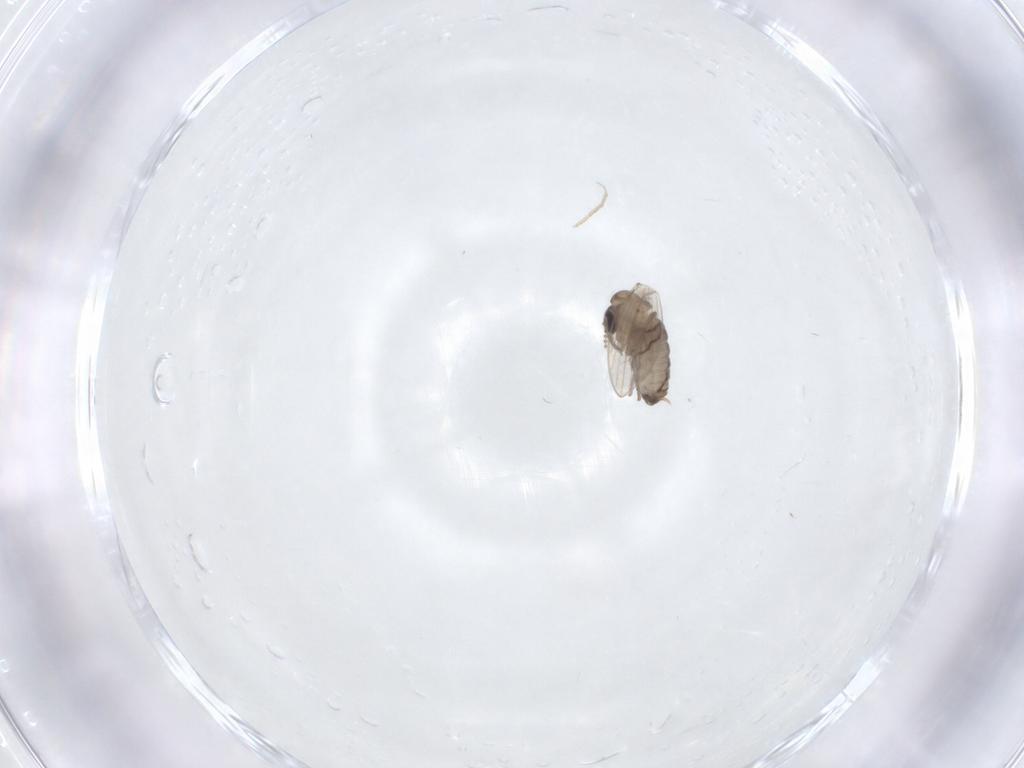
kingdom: Animalia
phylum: Arthropoda
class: Insecta
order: Diptera
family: Psychodidae
